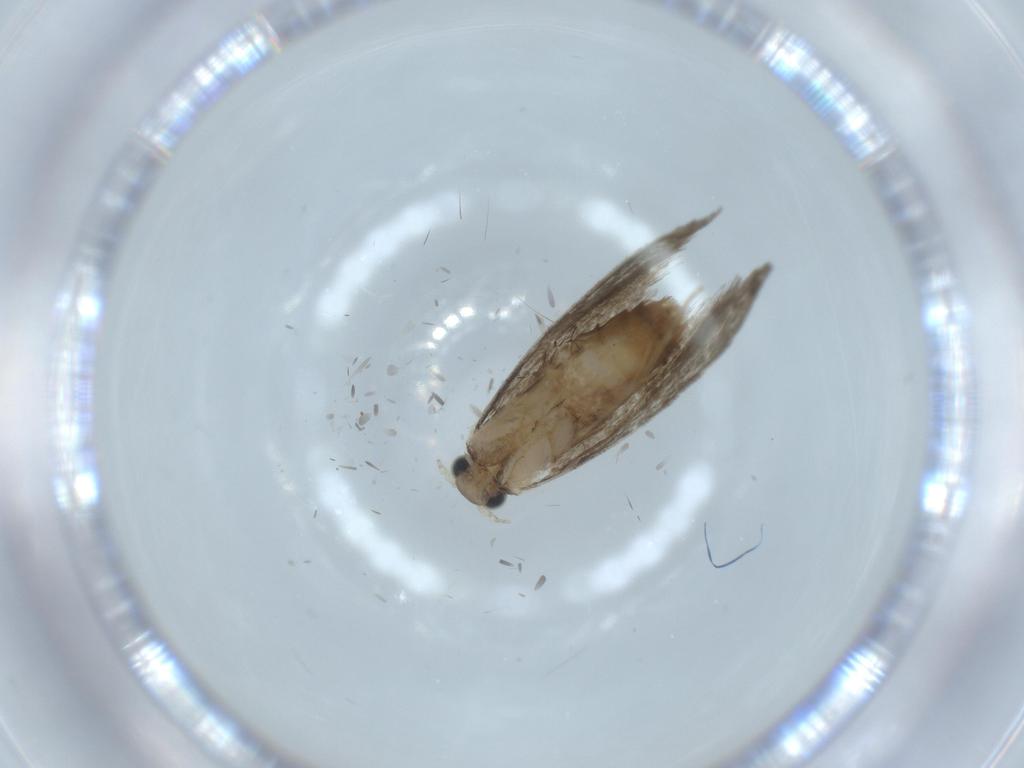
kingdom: Animalia
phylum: Arthropoda
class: Insecta
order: Lepidoptera
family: Tineidae
